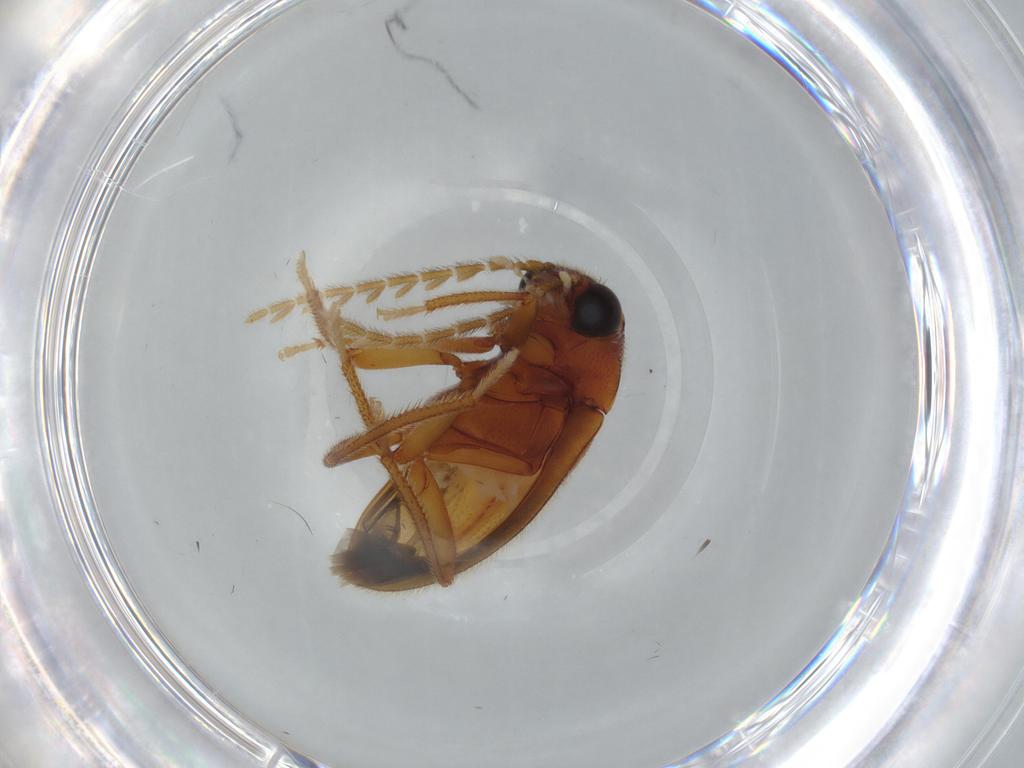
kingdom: Animalia
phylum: Arthropoda
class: Insecta
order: Coleoptera
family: Ptilodactylidae
